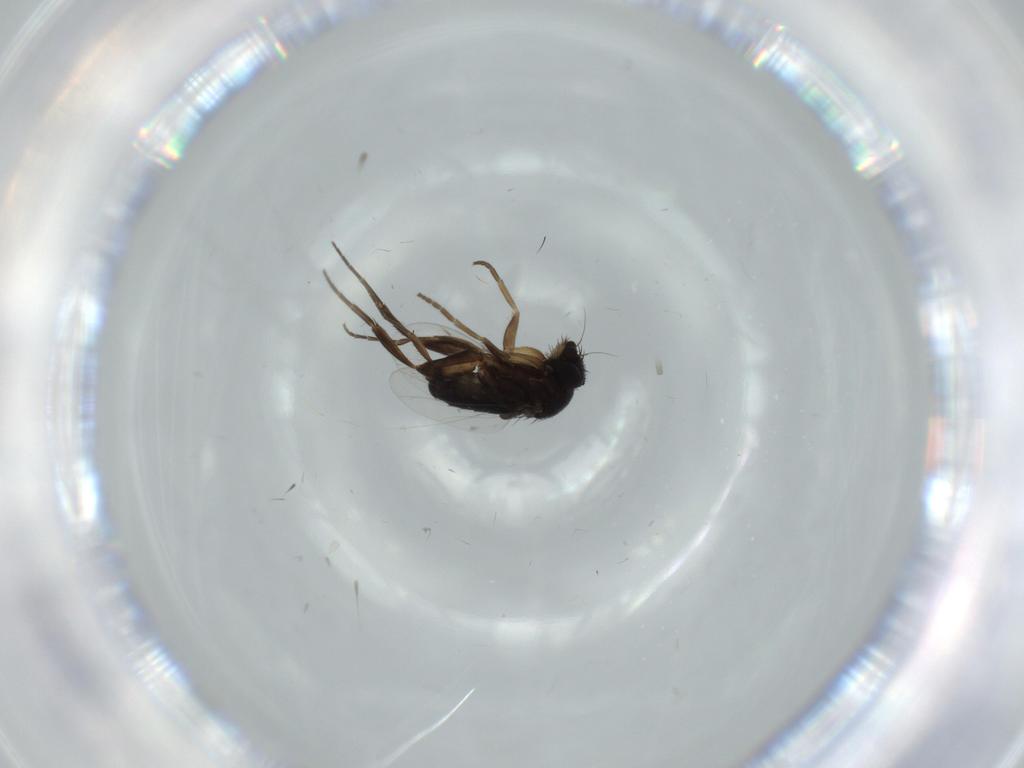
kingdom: Animalia
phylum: Arthropoda
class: Insecta
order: Diptera
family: Phoridae
